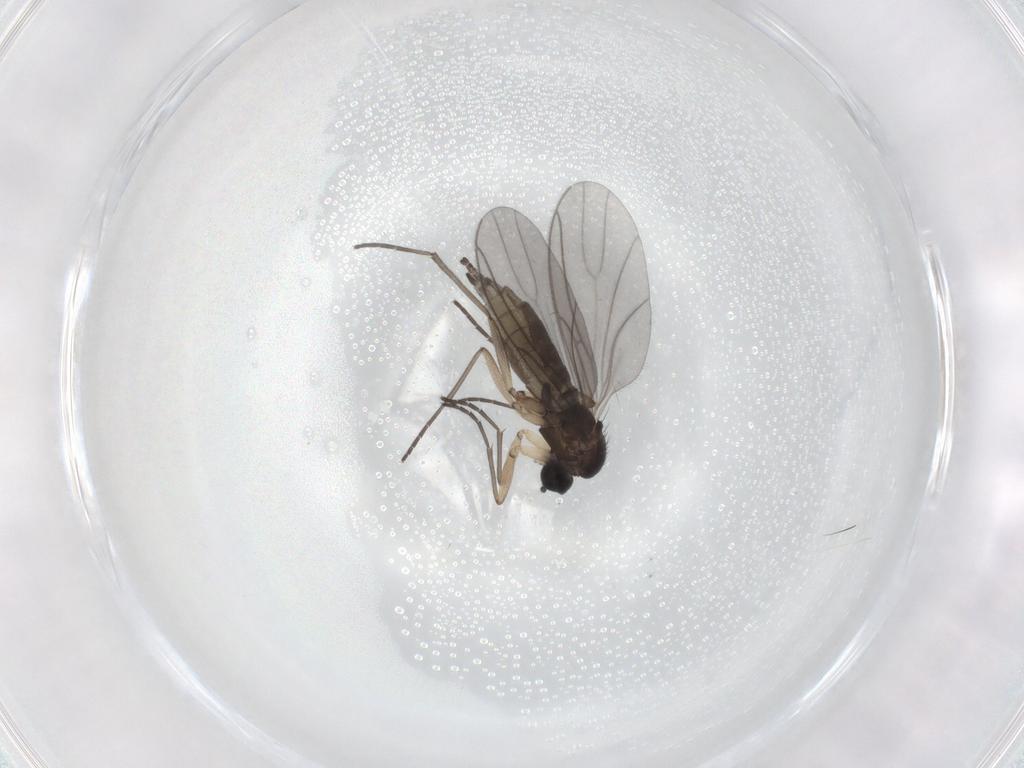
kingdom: Animalia
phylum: Arthropoda
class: Insecta
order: Diptera
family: Sciaridae
